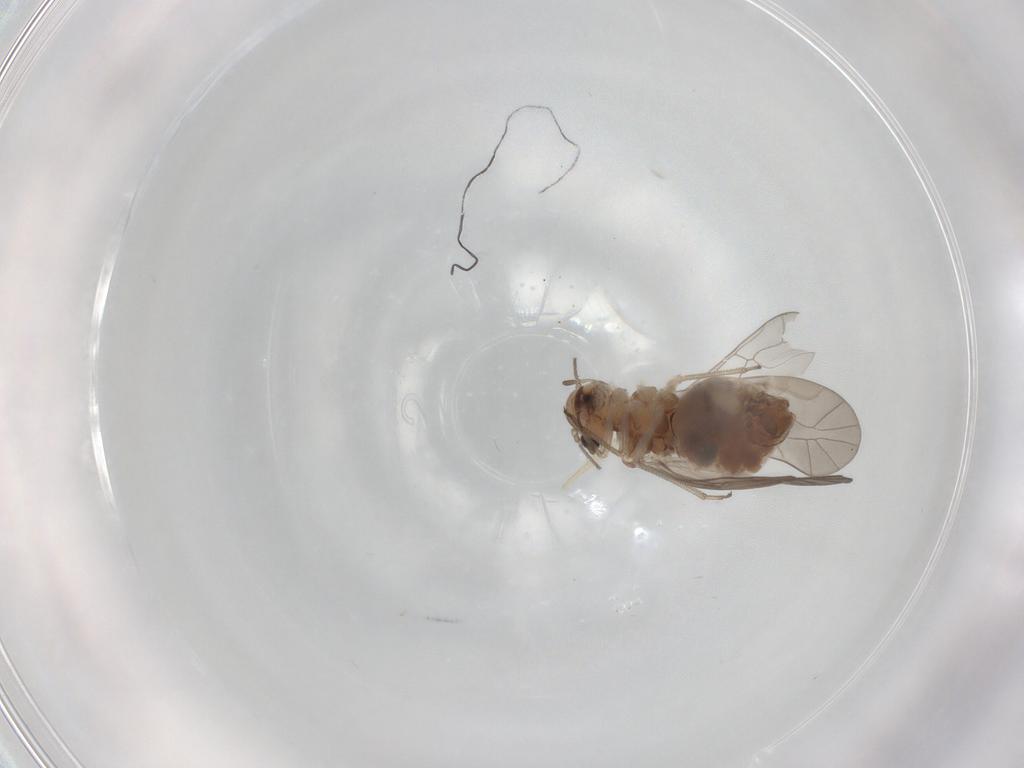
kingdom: Animalia
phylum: Arthropoda
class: Insecta
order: Psocodea
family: Peripsocidae
